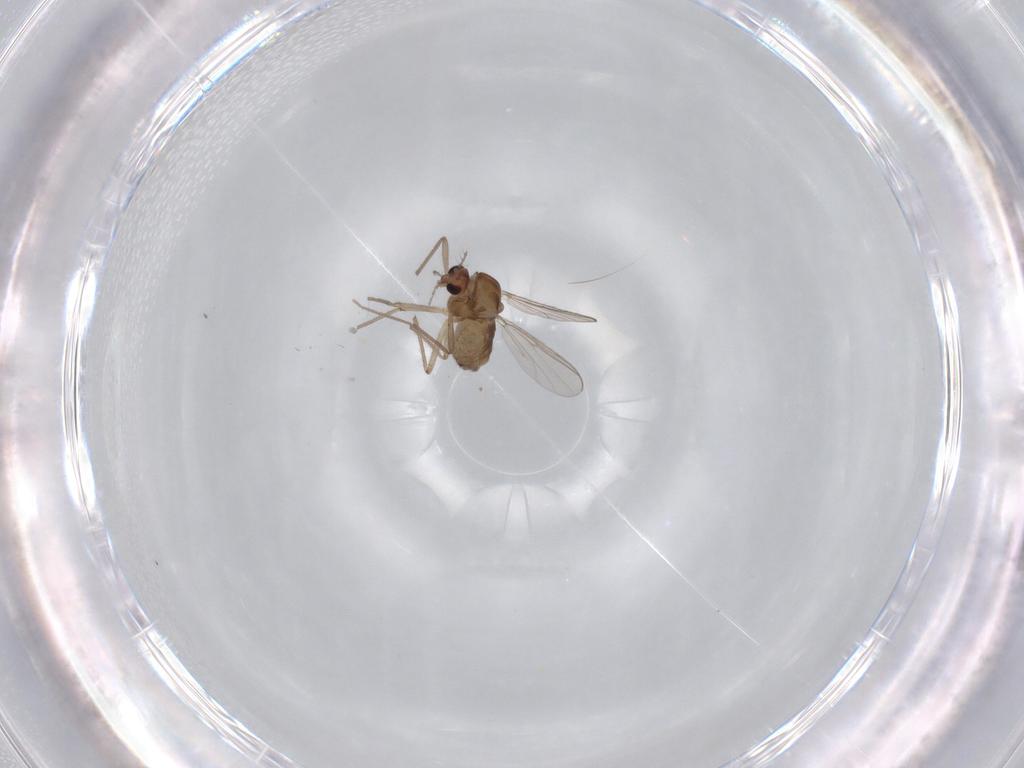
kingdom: Animalia
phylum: Arthropoda
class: Insecta
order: Diptera
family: Chironomidae
